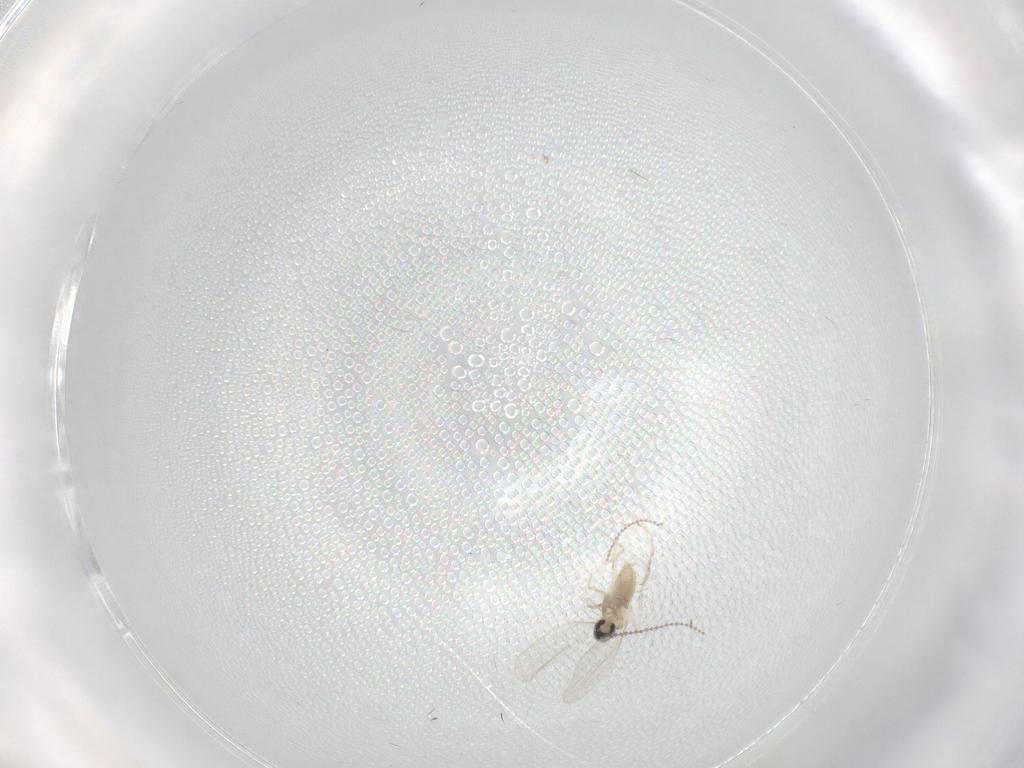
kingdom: Animalia
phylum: Arthropoda
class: Insecta
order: Diptera
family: Cecidomyiidae
